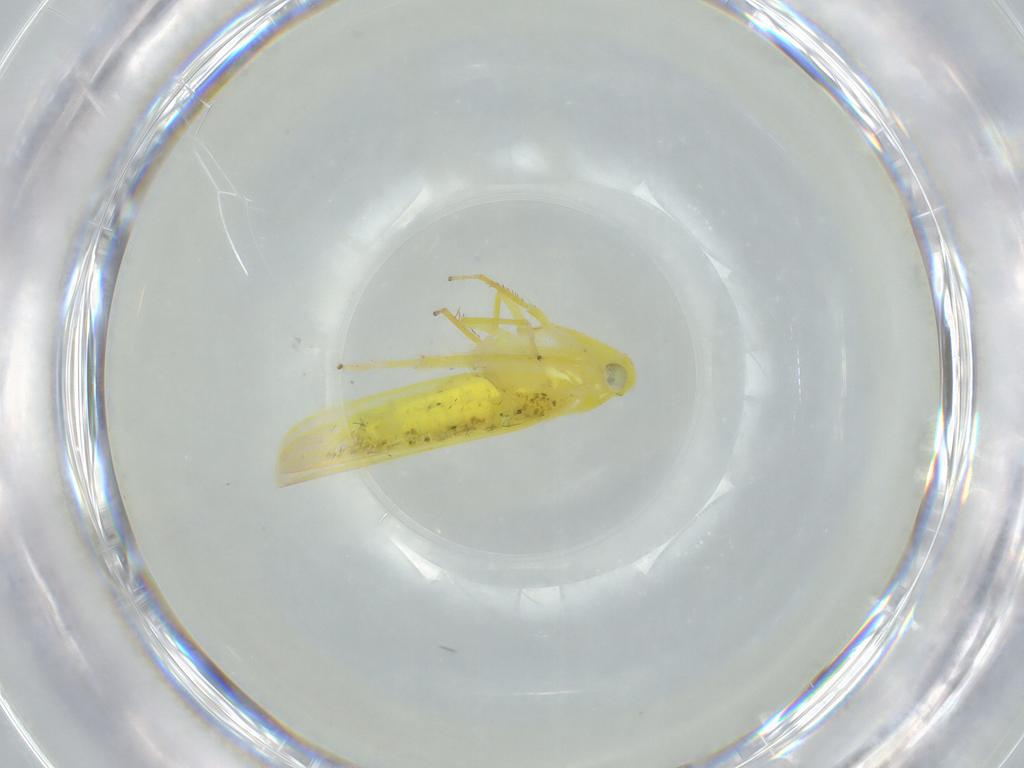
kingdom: Animalia
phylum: Arthropoda
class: Insecta
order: Hemiptera
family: Cicadellidae
